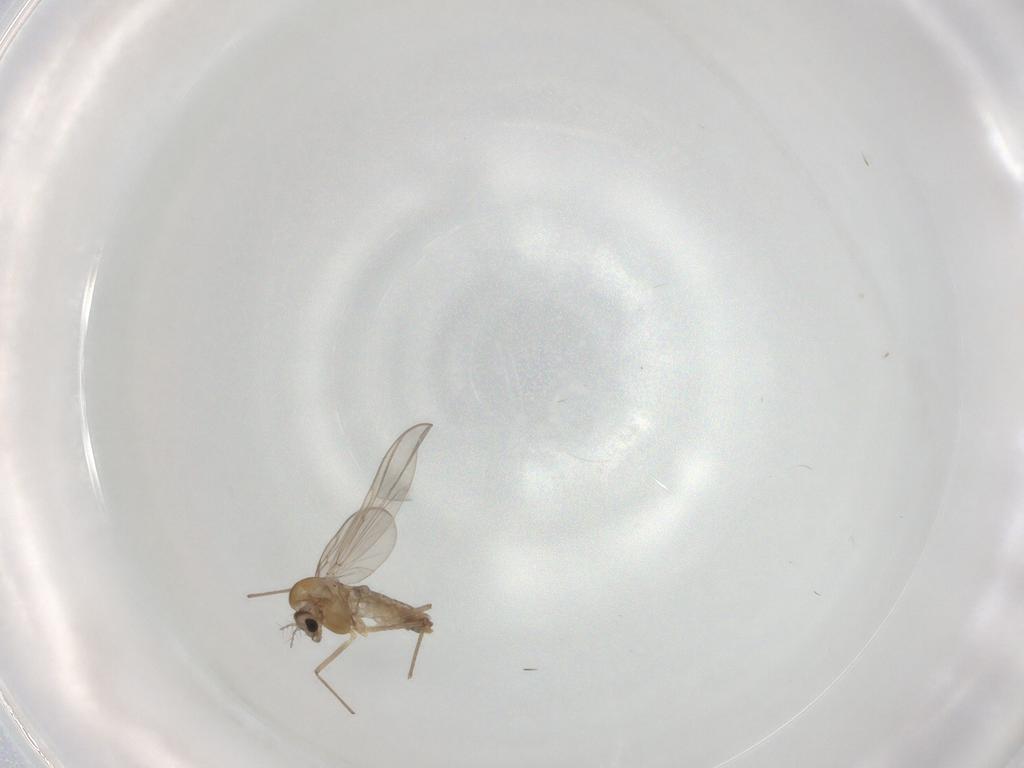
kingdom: Animalia
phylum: Arthropoda
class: Insecta
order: Diptera
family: Chironomidae
